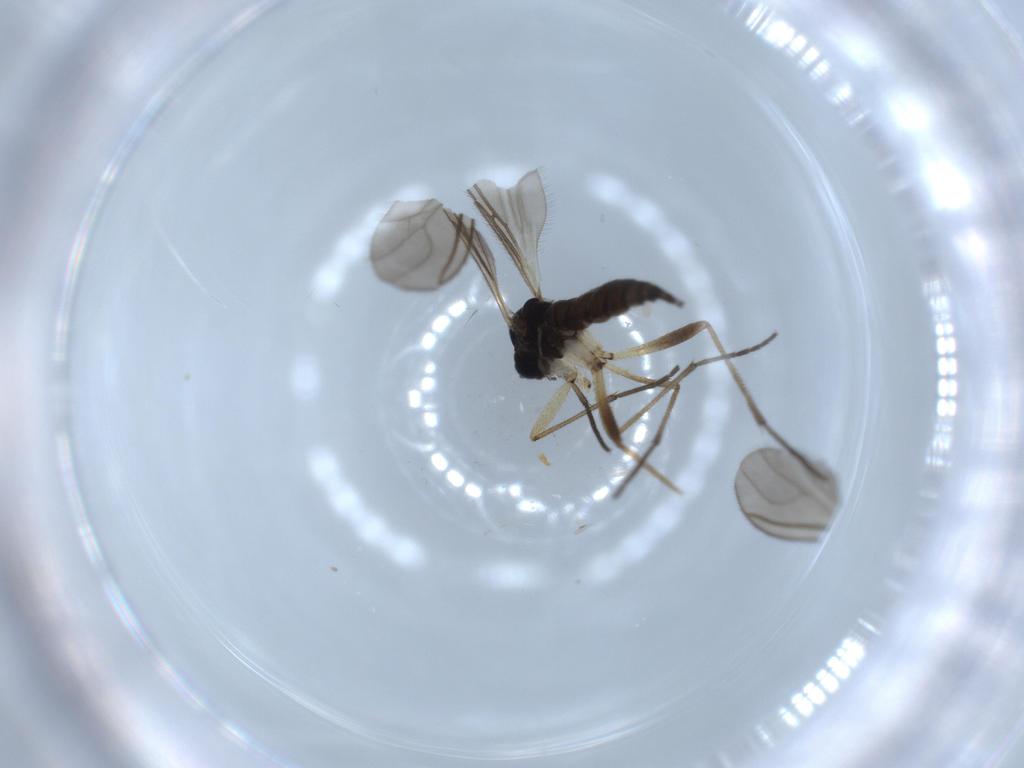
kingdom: Animalia
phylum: Arthropoda
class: Insecta
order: Diptera
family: Sciaridae
